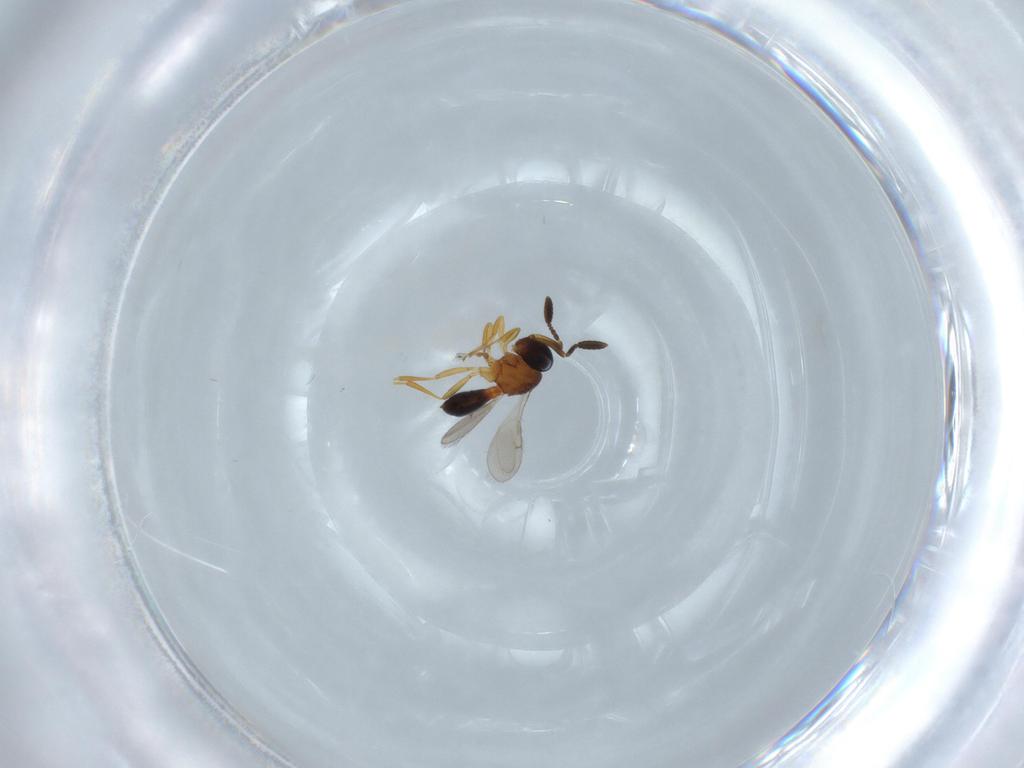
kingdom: Animalia
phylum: Arthropoda
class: Insecta
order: Hymenoptera
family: Scelionidae
